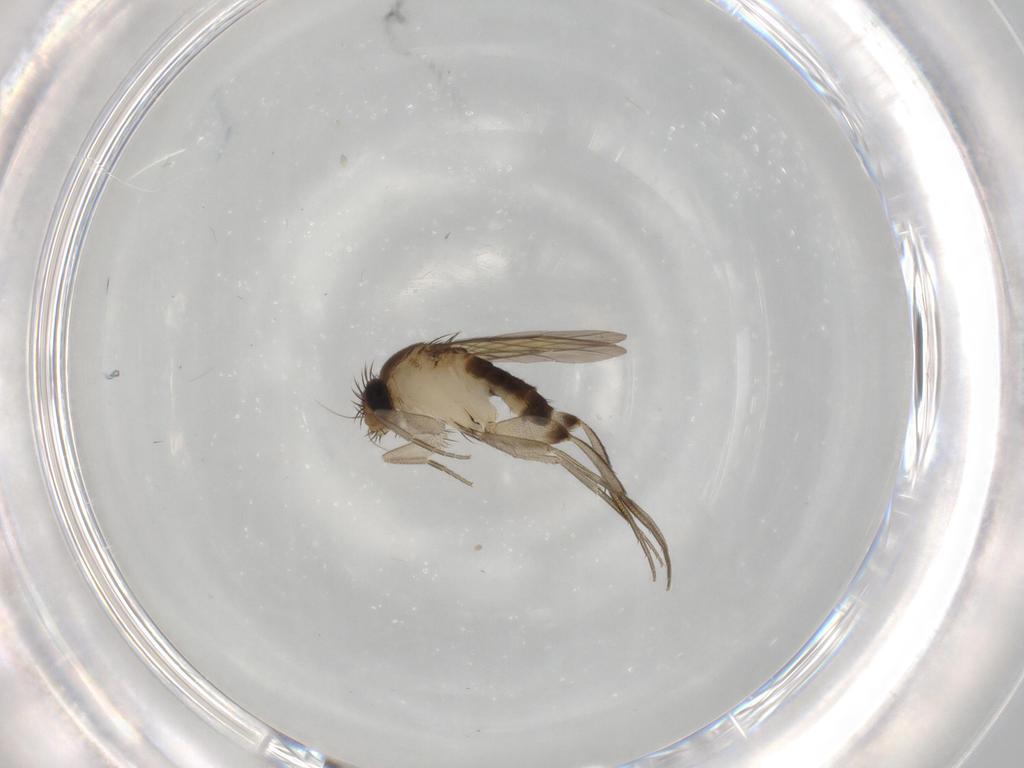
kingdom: Animalia
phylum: Arthropoda
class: Insecta
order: Diptera
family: Phoridae
